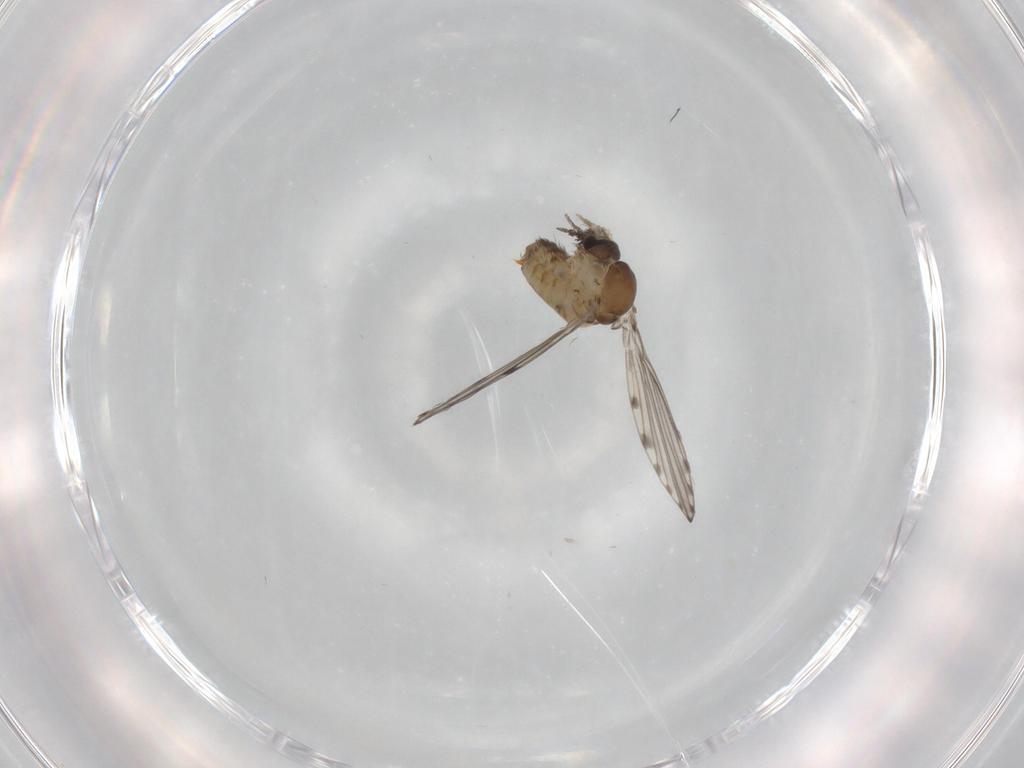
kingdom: Animalia
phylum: Arthropoda
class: Insecta
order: Diptera
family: Psychodidae
